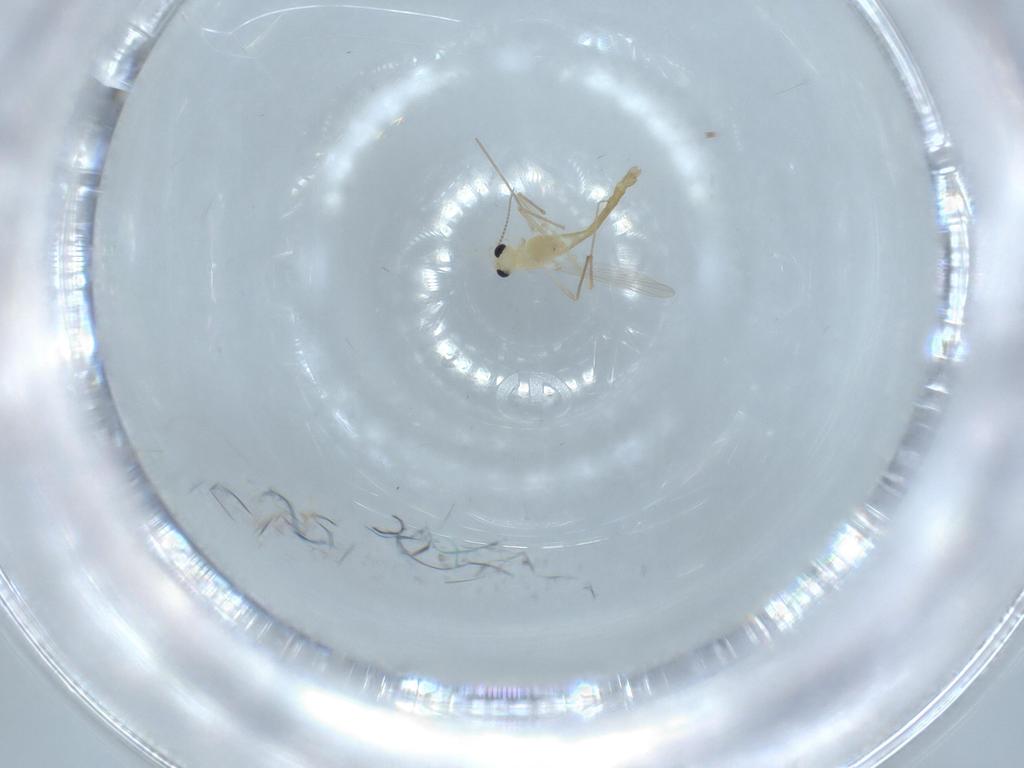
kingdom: Animalia
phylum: Arthropoda
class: Insecta
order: Diptera
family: Chironomidae
